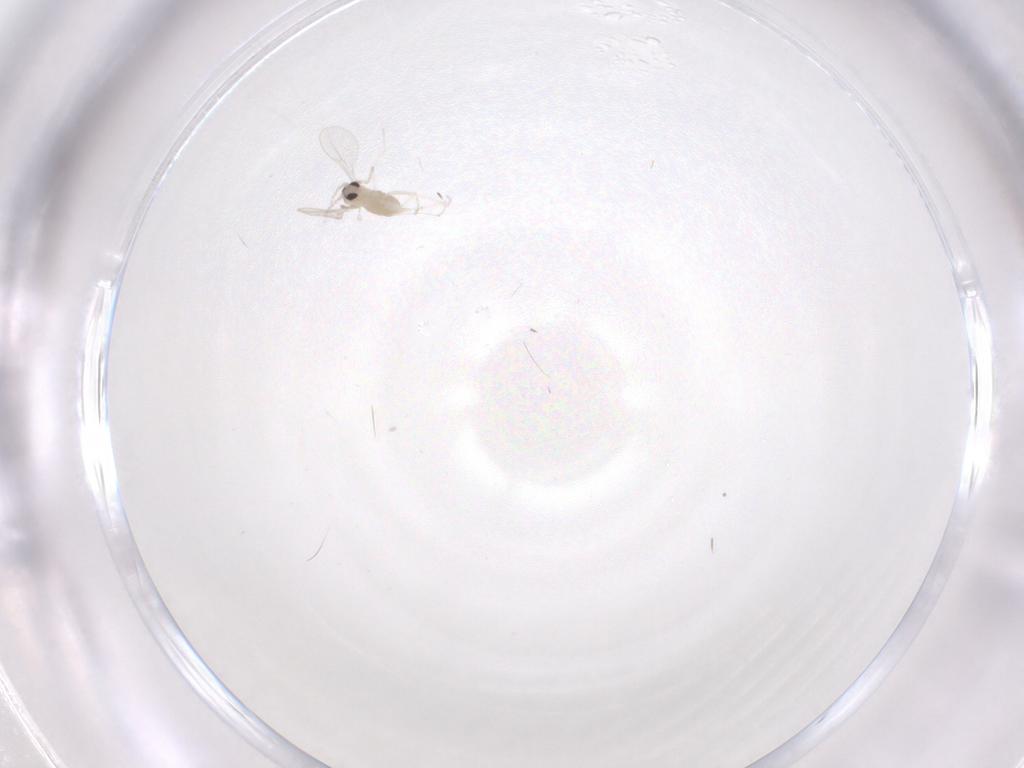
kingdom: Animalia
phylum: Arthropoda
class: Insecta
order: Diptera
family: Cecidomyiidae
